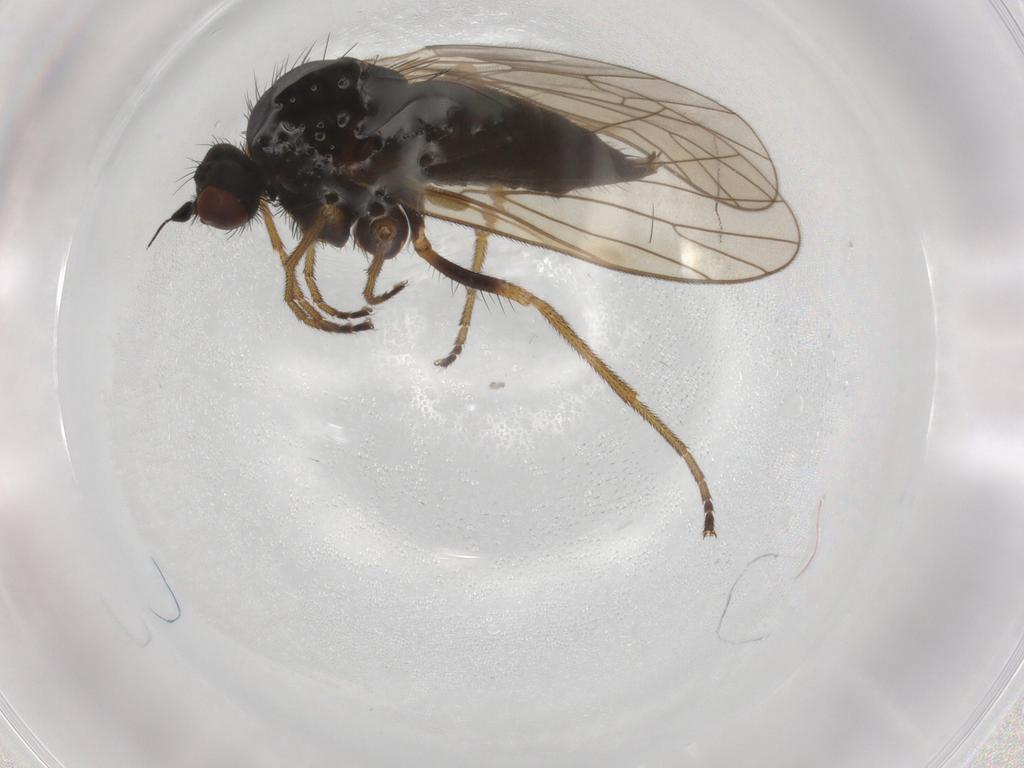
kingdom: Animalia
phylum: Arthropoda
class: Insecta
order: Diptera
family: Brachystomatidae
